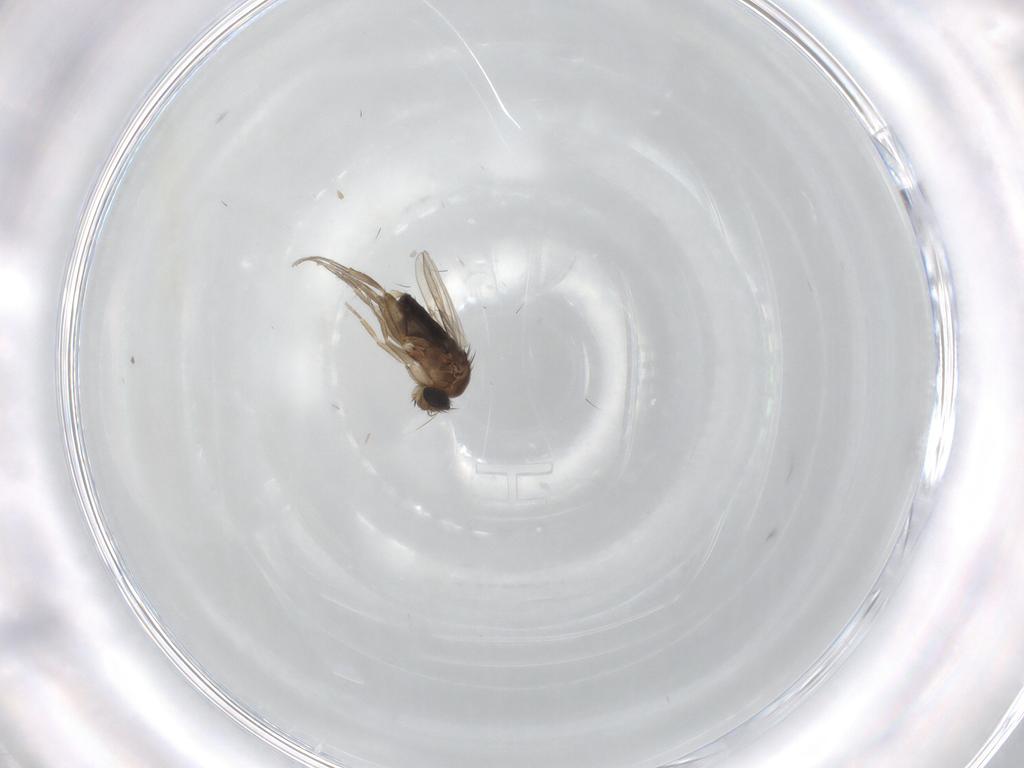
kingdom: Animalia
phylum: Arthropoda
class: Insecta
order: Diptera
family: Phoridae
